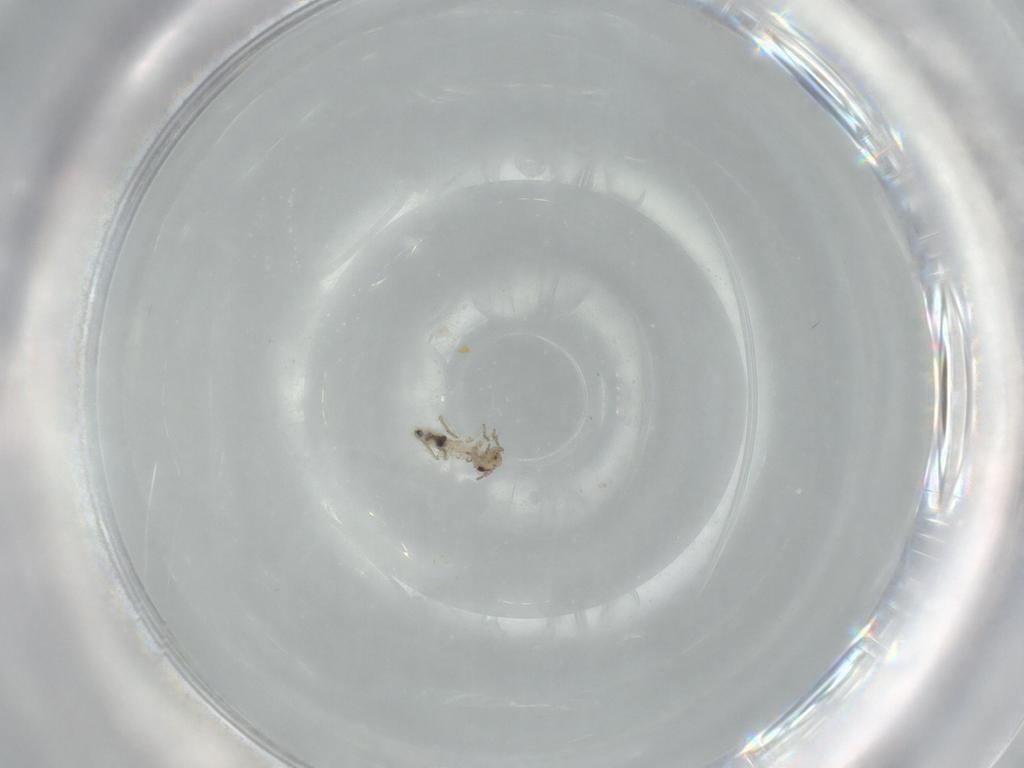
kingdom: Animalia
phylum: Arthropoda
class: Insecta
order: Psocodea
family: Lepidopsocidae
